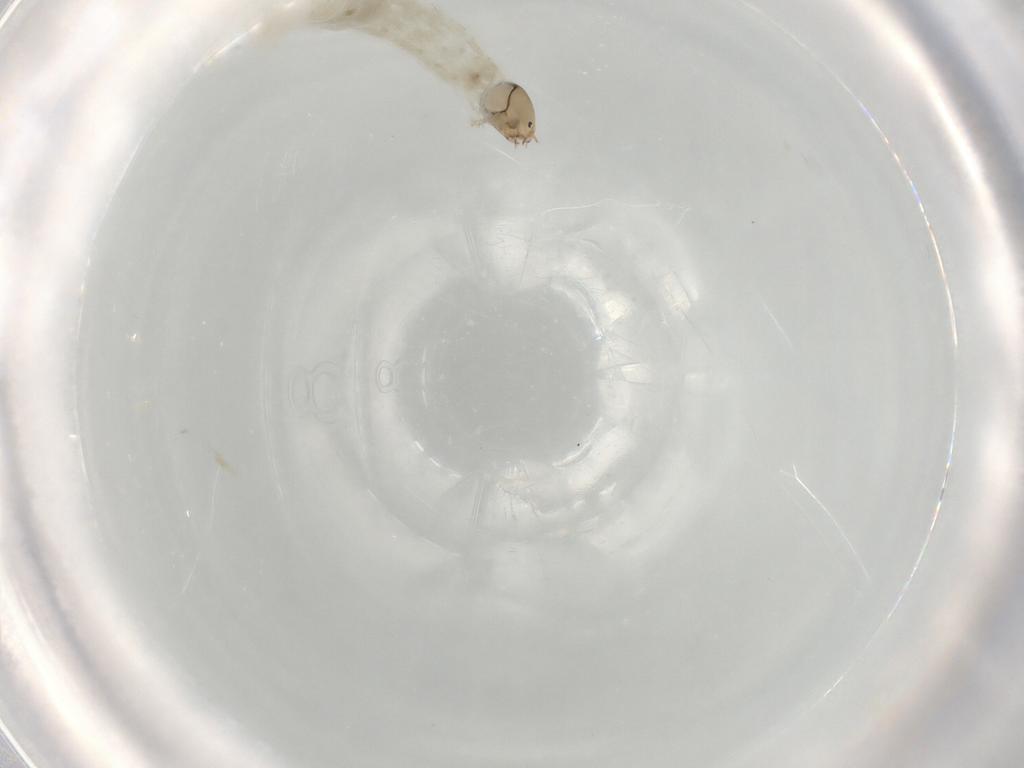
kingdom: Animalia
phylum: Arthropoda
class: Insecta
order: Diptera
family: Chironomidae
